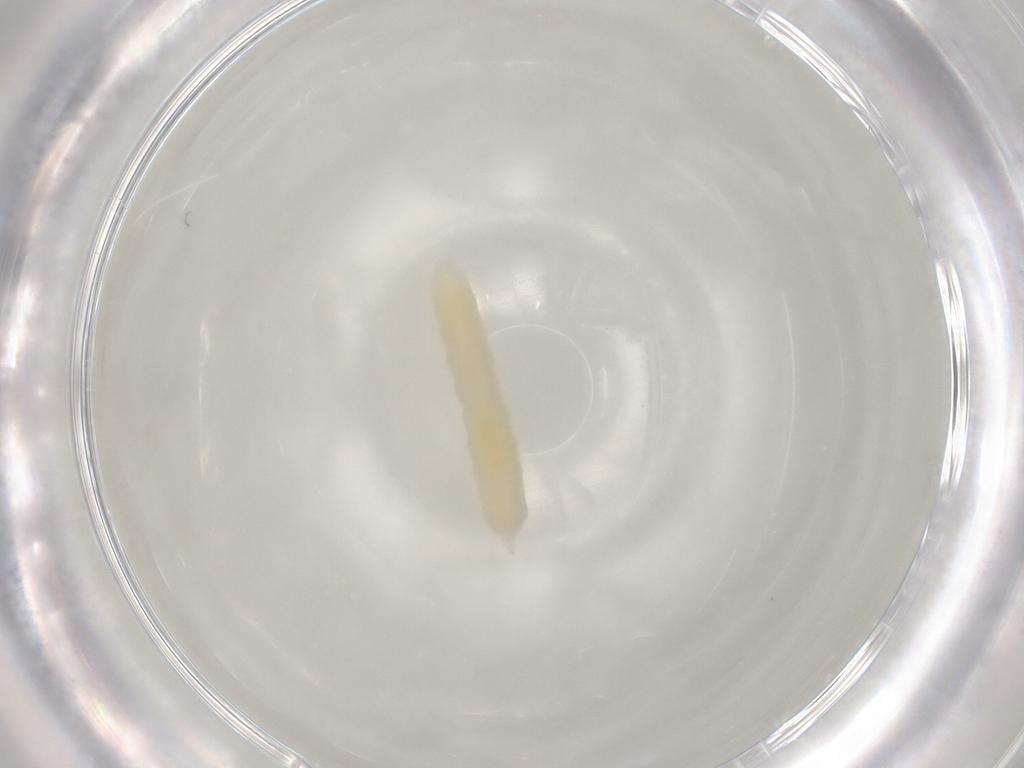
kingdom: Animalia
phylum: Arthropoda
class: Insecta
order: Diptera
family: Cecidomyiidae
